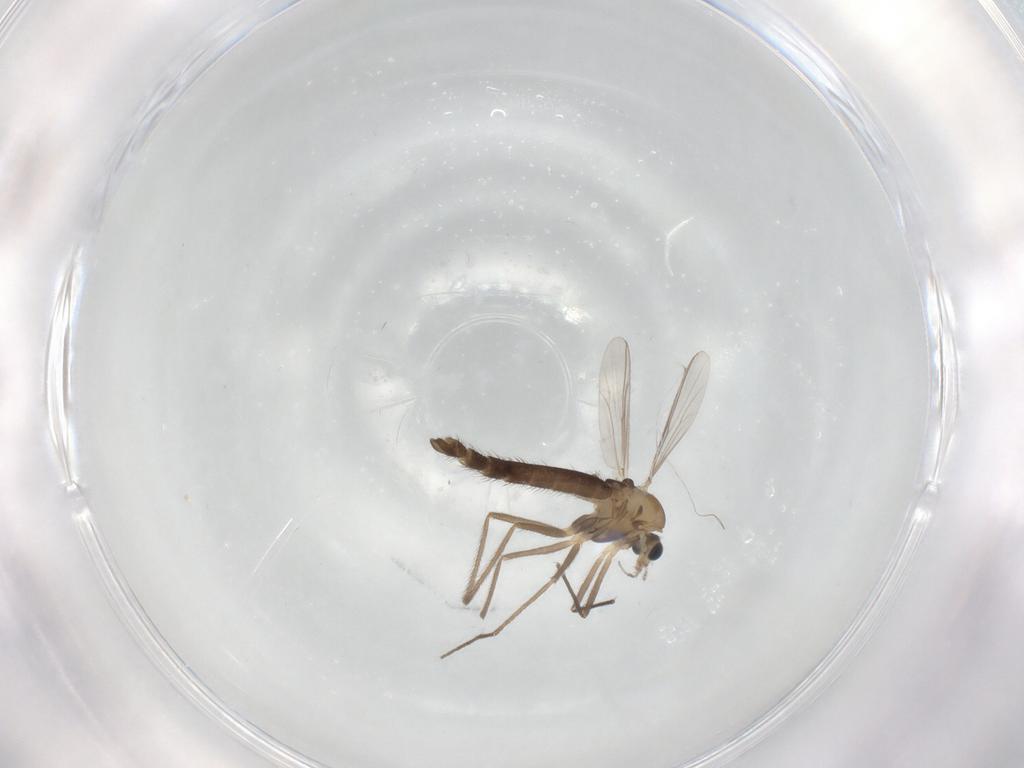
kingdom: Animalia
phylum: Arthropoda
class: Insecta
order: Diptera
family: Chironomidae
